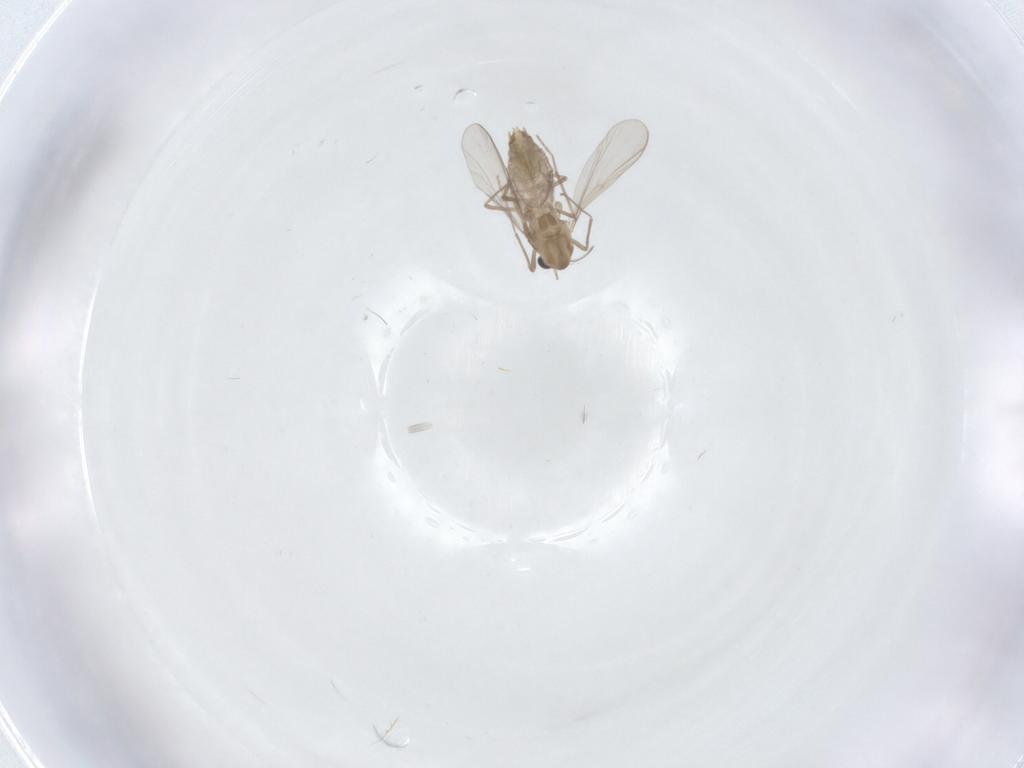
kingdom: Animalia
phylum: Arthropoda
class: Insecta
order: Diptera
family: Chironomidae
